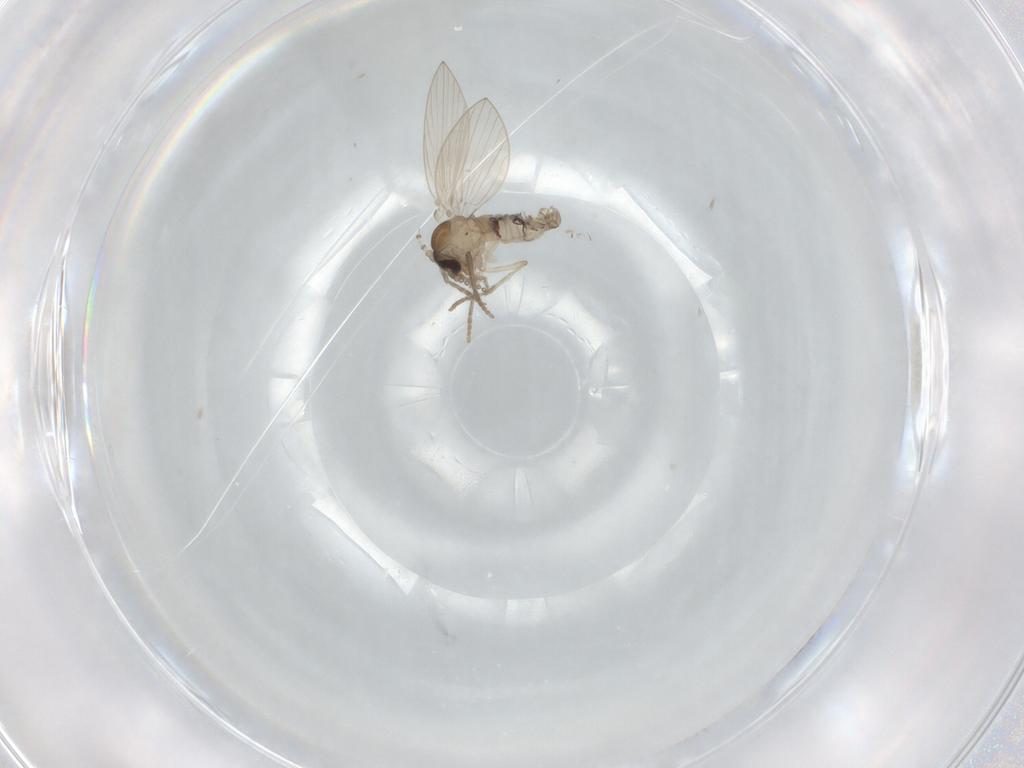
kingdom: Animalia
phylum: Arthropoda
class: Insecta
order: Diptera
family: Psychodidae
